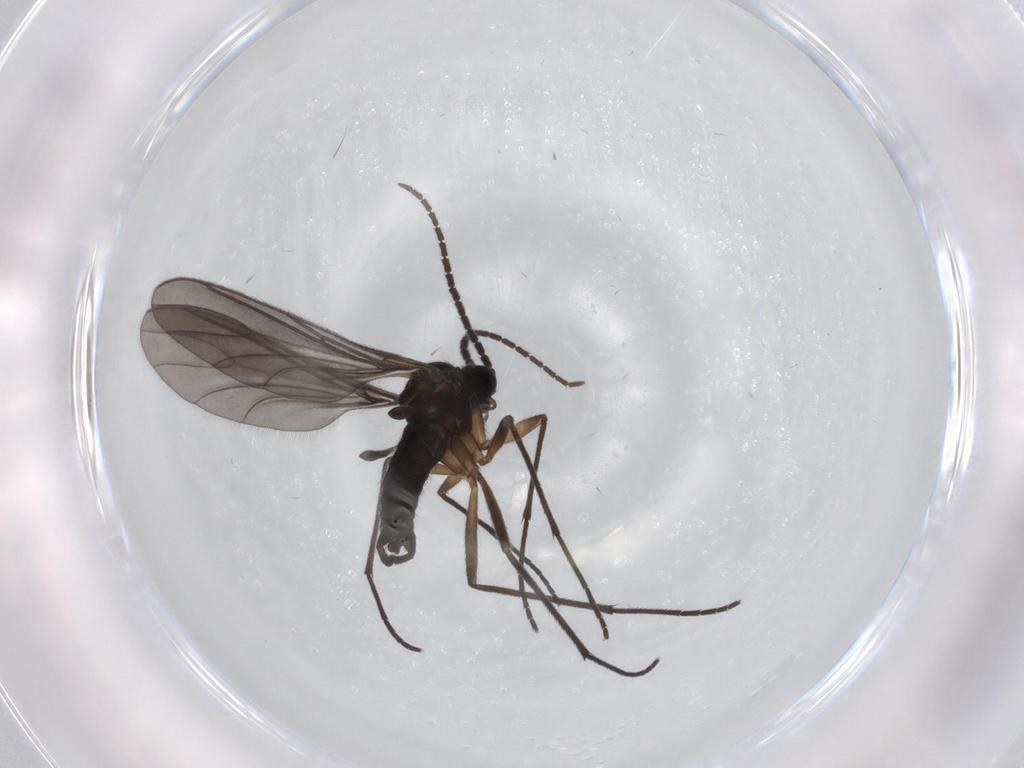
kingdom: Animalia
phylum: Arthropoda
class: Insecta
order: Diptera
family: Sciaridae
